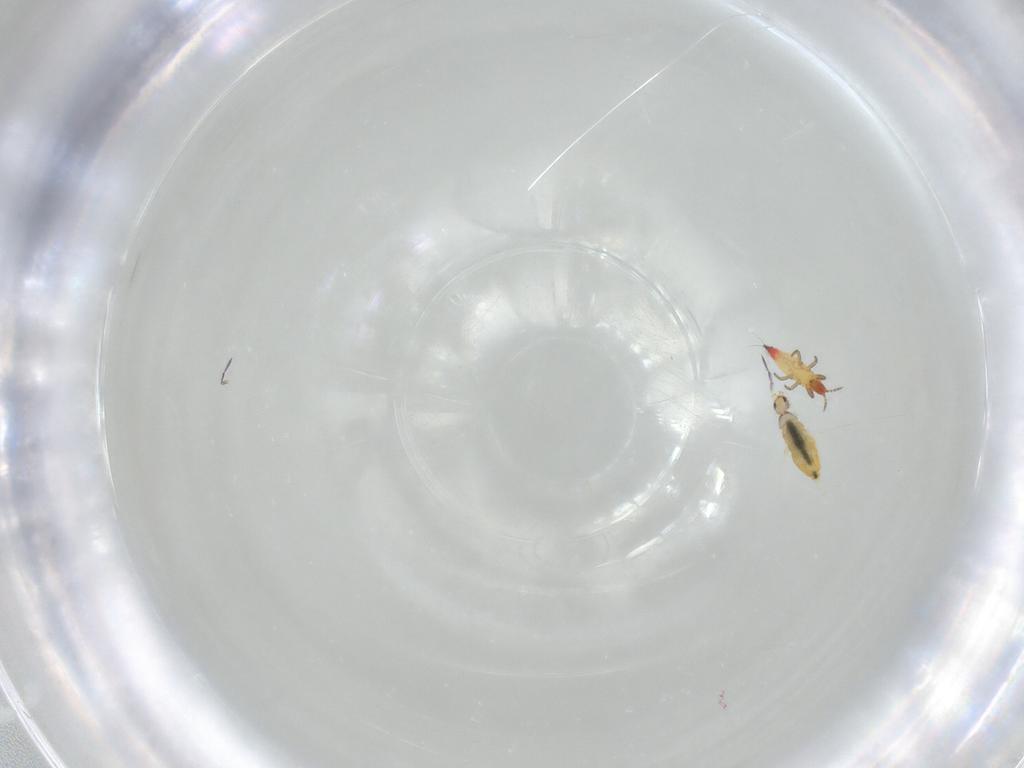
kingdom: Animalia
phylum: Arthropoda
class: Insecta
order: Thysanoptera
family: Phlaeothripidae
